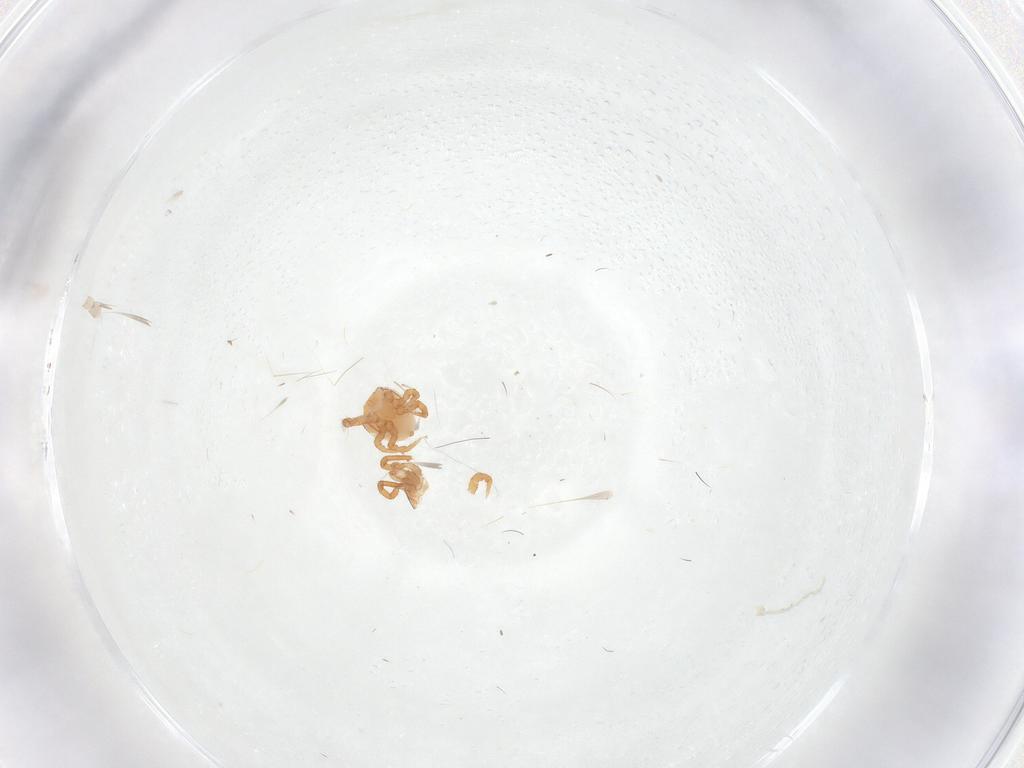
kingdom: Animalia
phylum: Arthropoda
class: Arachnida
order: Mesostigmata
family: Parasitidae
